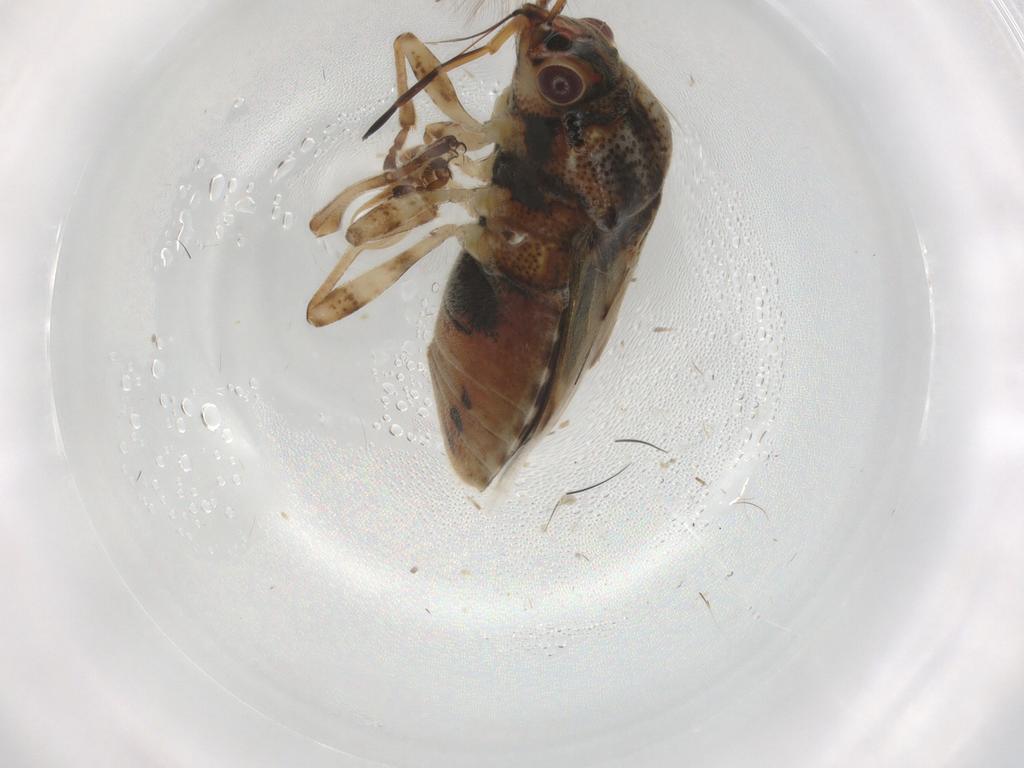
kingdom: Animalia
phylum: Arthropoda
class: Insecta
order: Hemiptera
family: Lygaeidae
